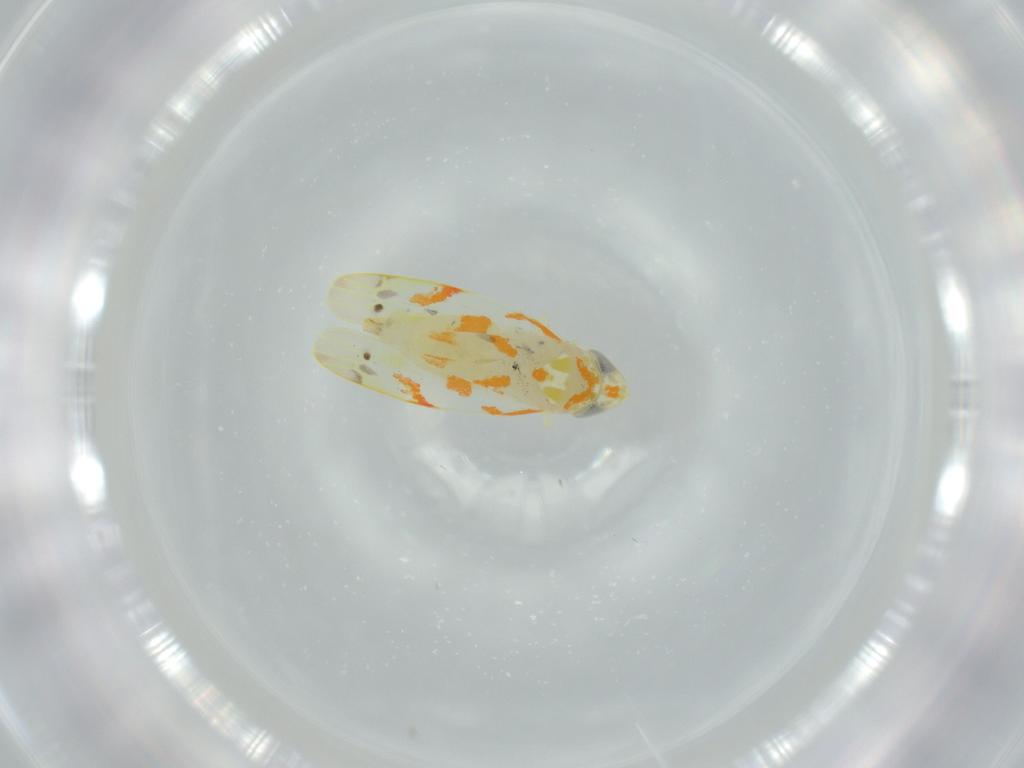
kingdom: Animalia
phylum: Arthropoda
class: Insecta
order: Hemiptera
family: Cicadellidae
